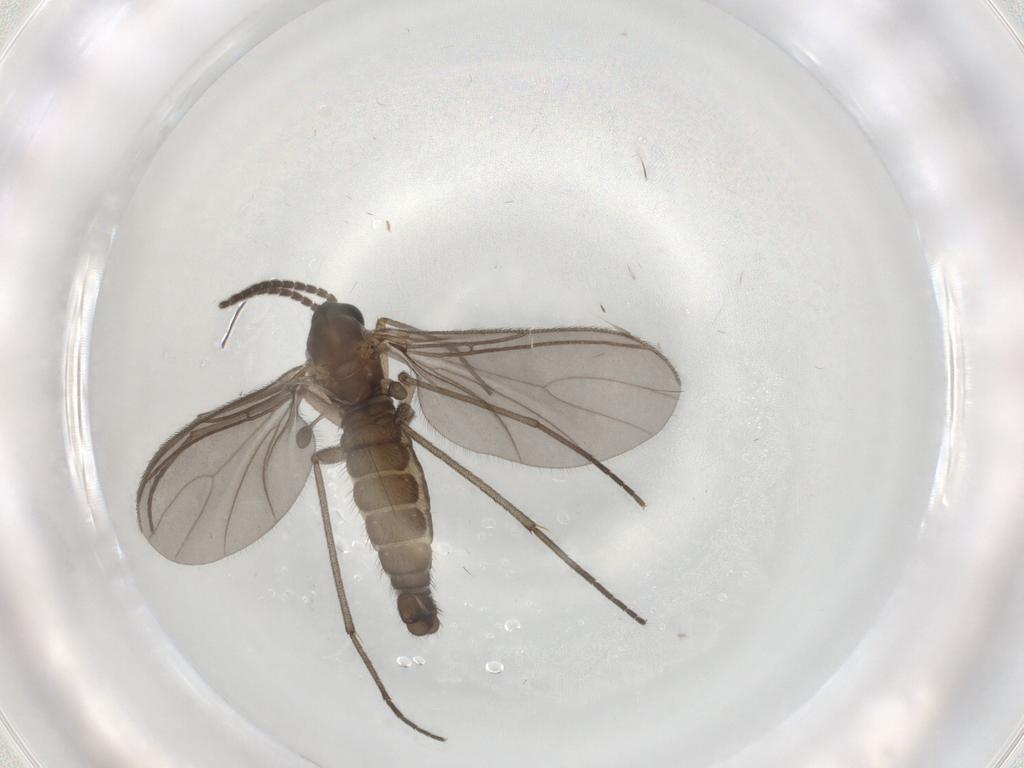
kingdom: Animalia
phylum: Arthropoda
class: Insecta
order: Diptera
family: Sciaridae
